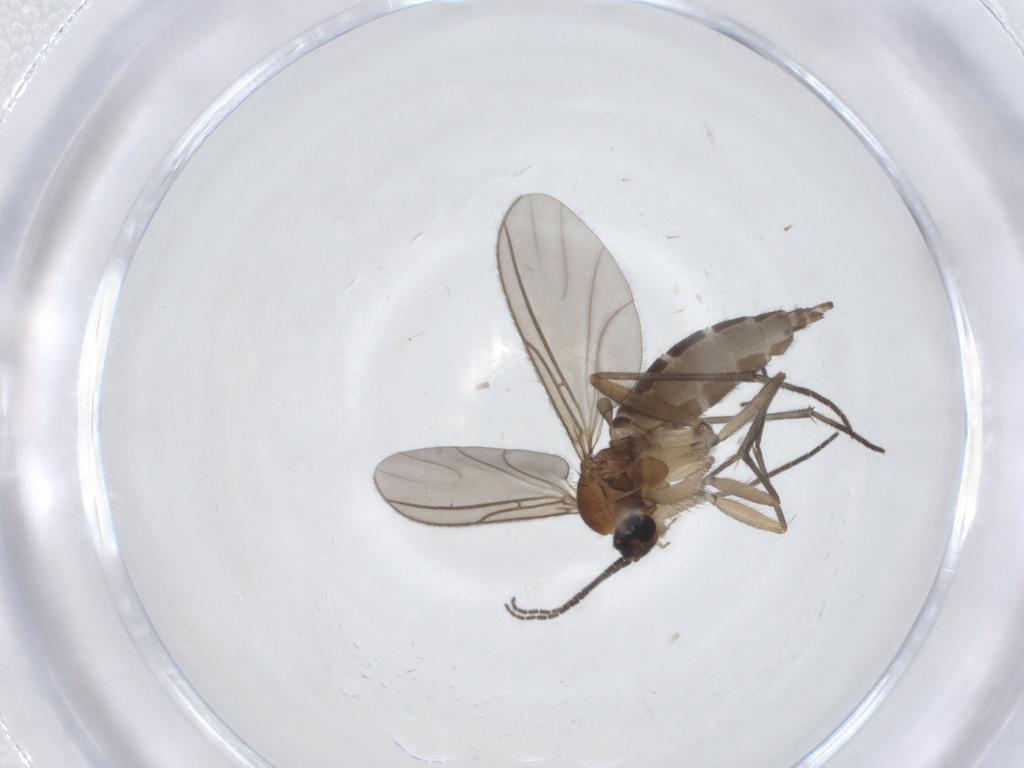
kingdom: Animalia
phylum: Arthropoda
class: Insecta
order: Diptera
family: Sciaridae
